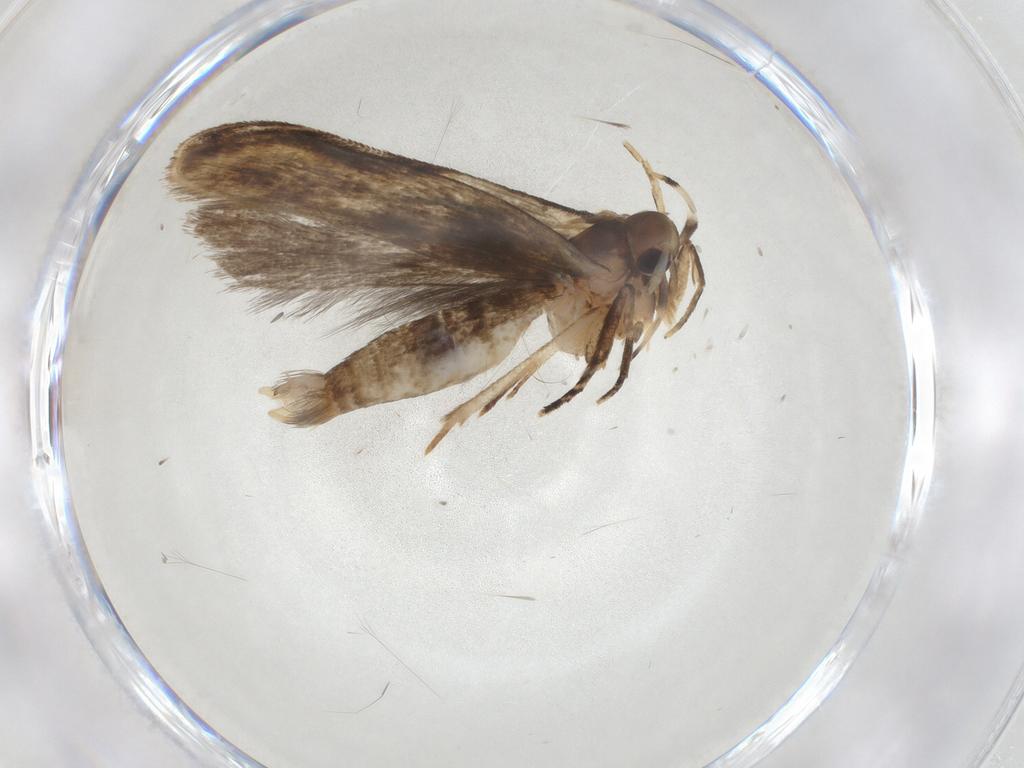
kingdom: Animalia
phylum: Arthropoda
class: Insecta
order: Lepidoptera
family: Gelechiidae
